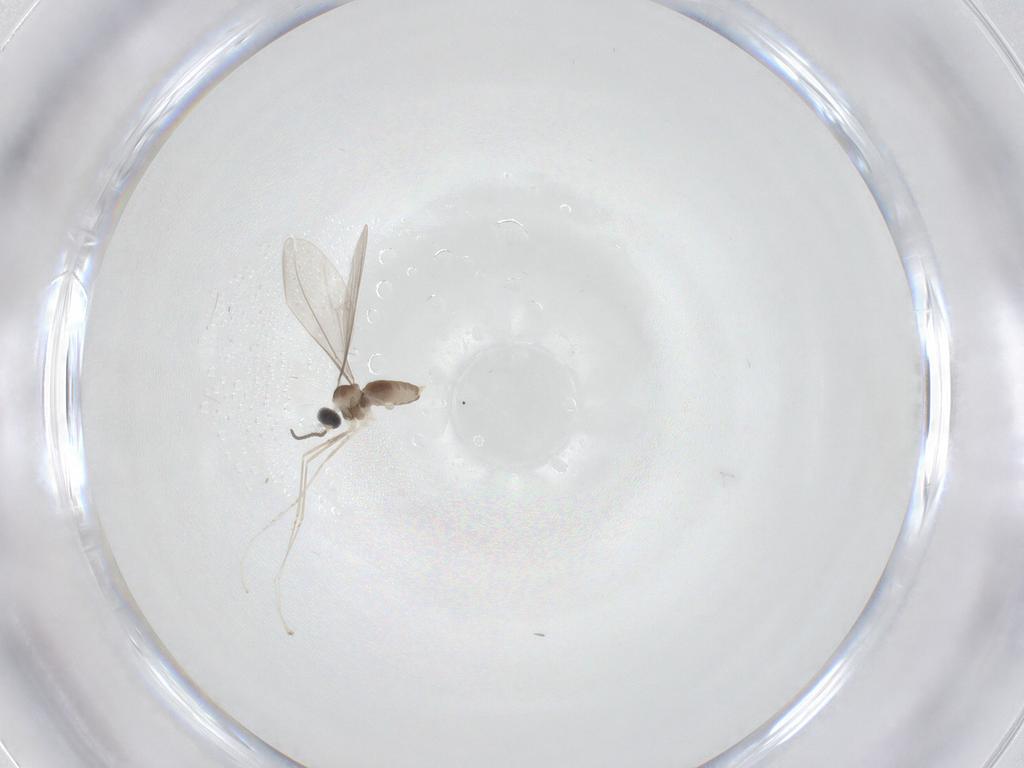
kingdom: Animalia
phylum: Arthropoda
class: Insecta
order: Diptera
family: Cecidomyiidae
